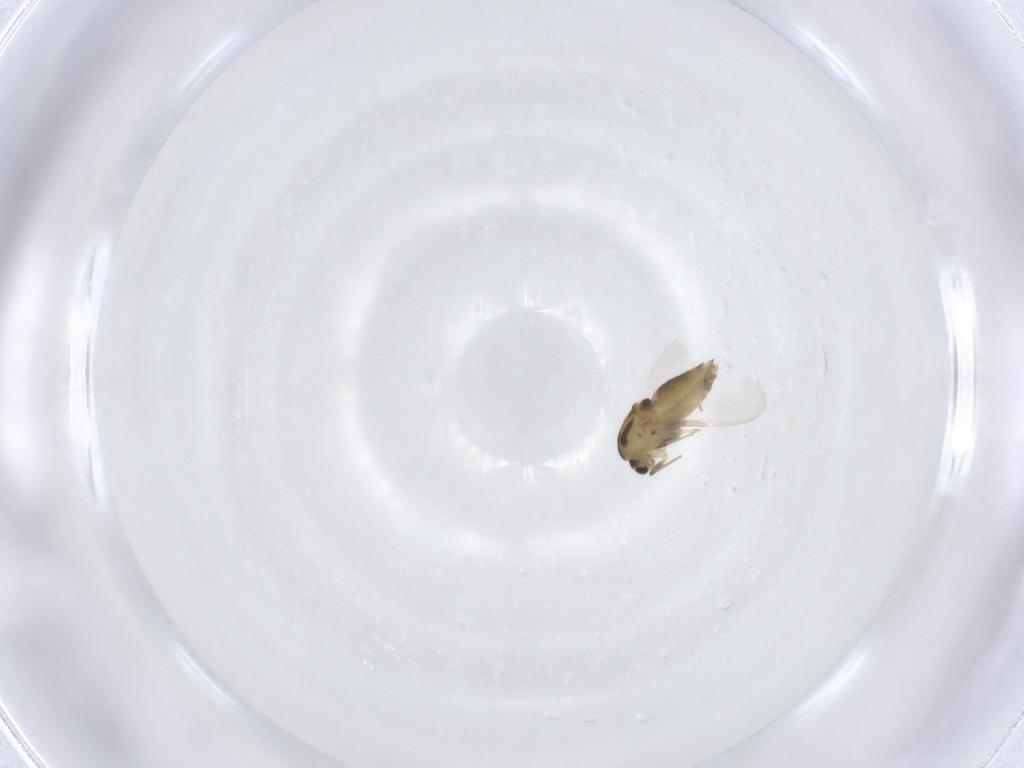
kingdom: Animalia
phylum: Arthropoda
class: Insecta
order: Diptera
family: Chironomidae
